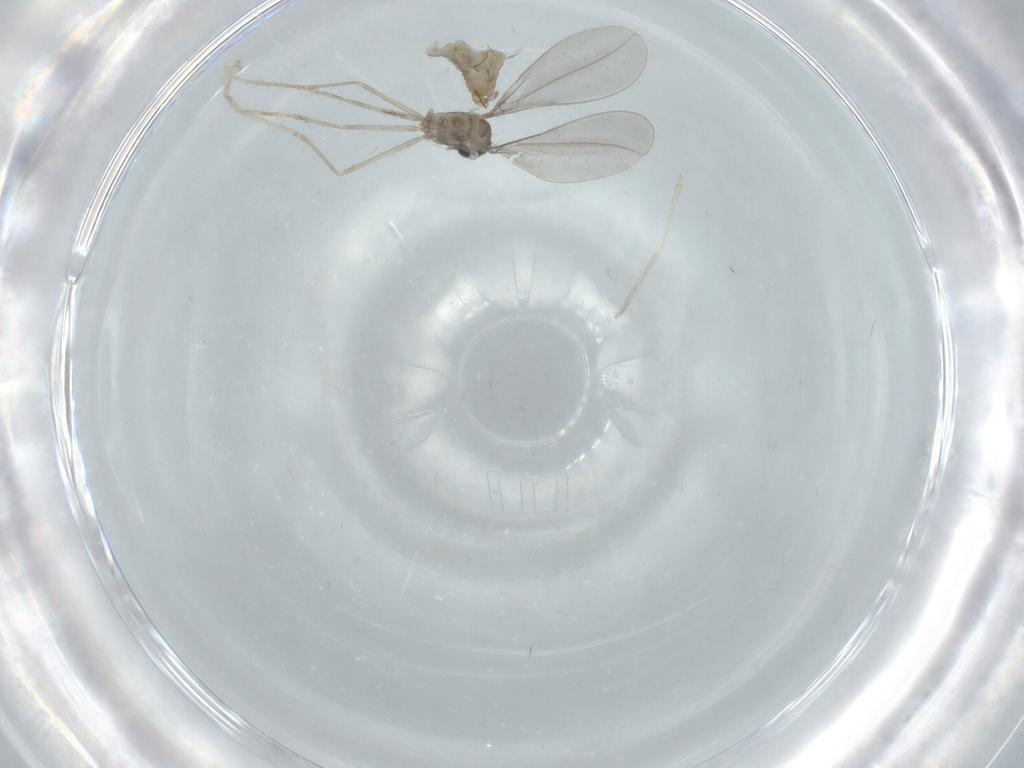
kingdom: Animalia
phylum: Arthropoda
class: Insecta
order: Diptera
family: Cecidomyiidae
